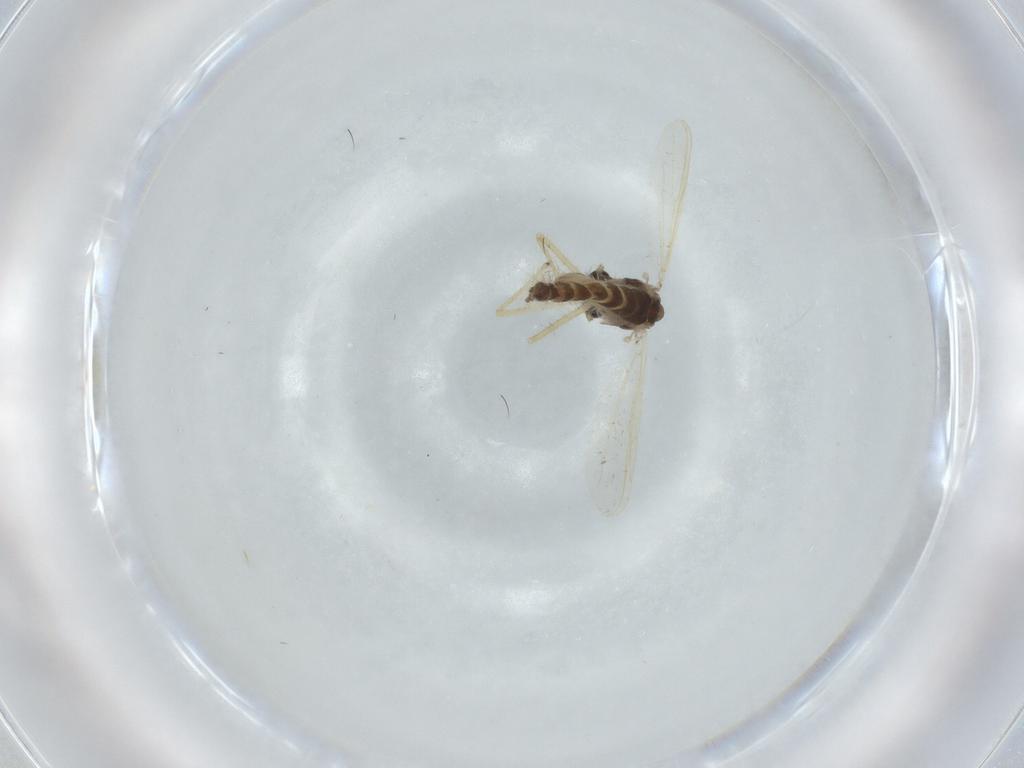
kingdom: Animalia
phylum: Arthropoda
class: Insecta
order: Diptera
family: Chironomidae
